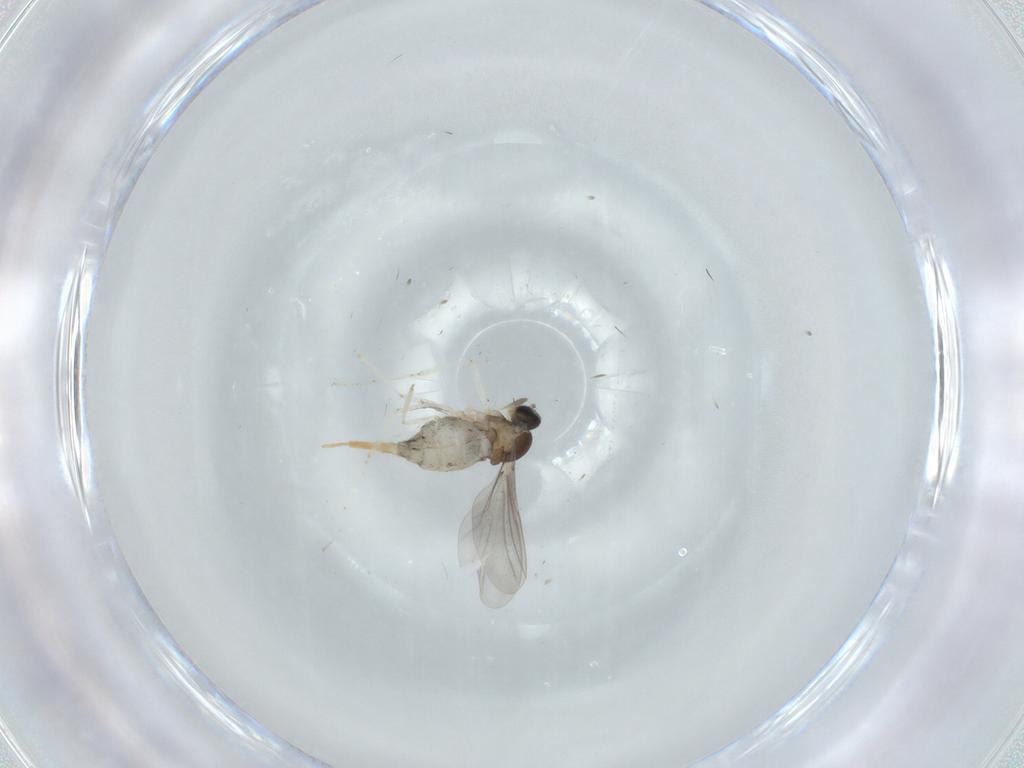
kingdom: Animalia
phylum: Arthropoda
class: Insecta
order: Diptera
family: Cecidomyiidae
